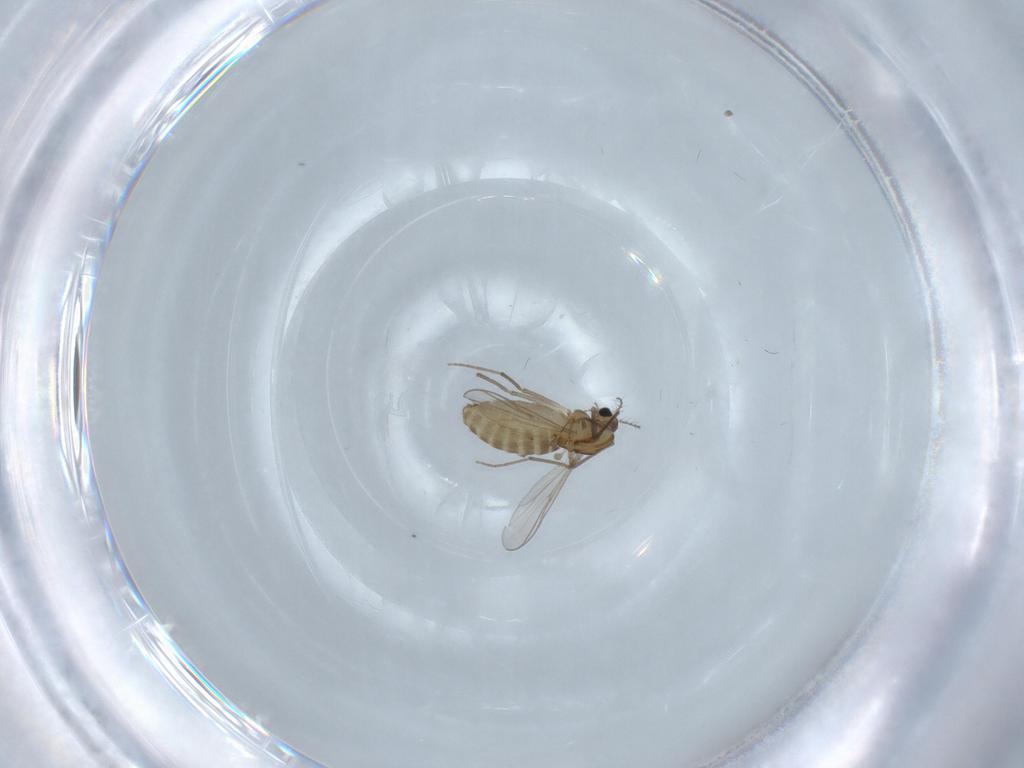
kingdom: Animalia
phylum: Arthropoda
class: Insecta
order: Diptera
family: Chironomidae
